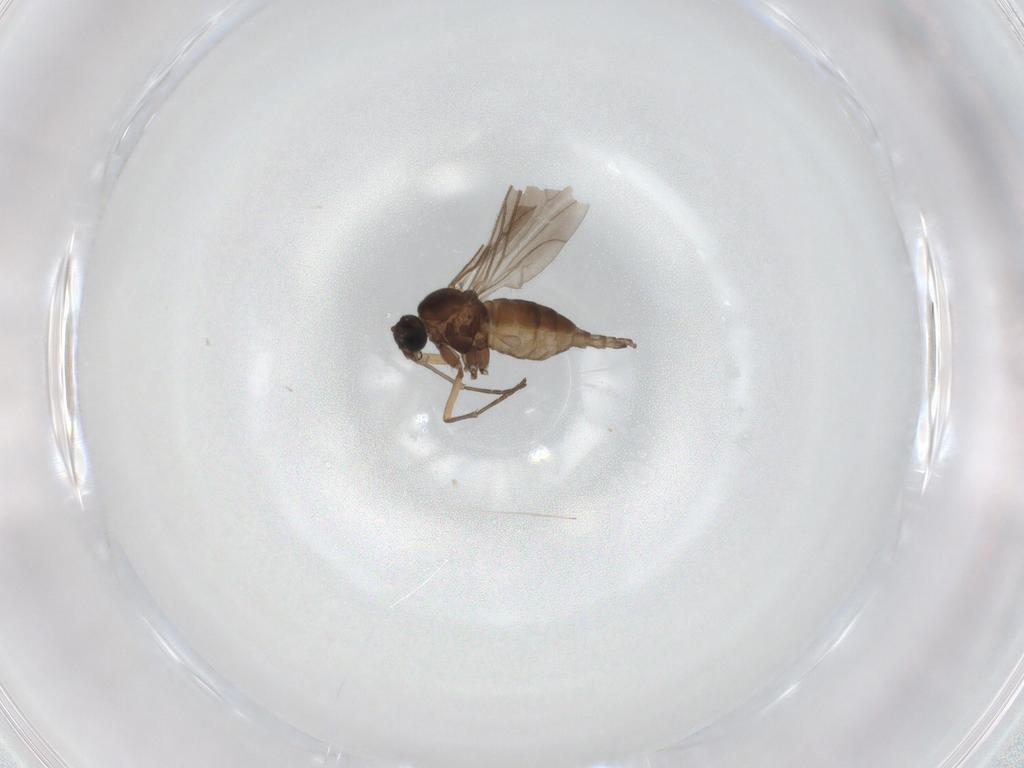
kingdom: Animalia
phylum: Arthropoda
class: Insecta
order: Diptera
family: Sciaridae
